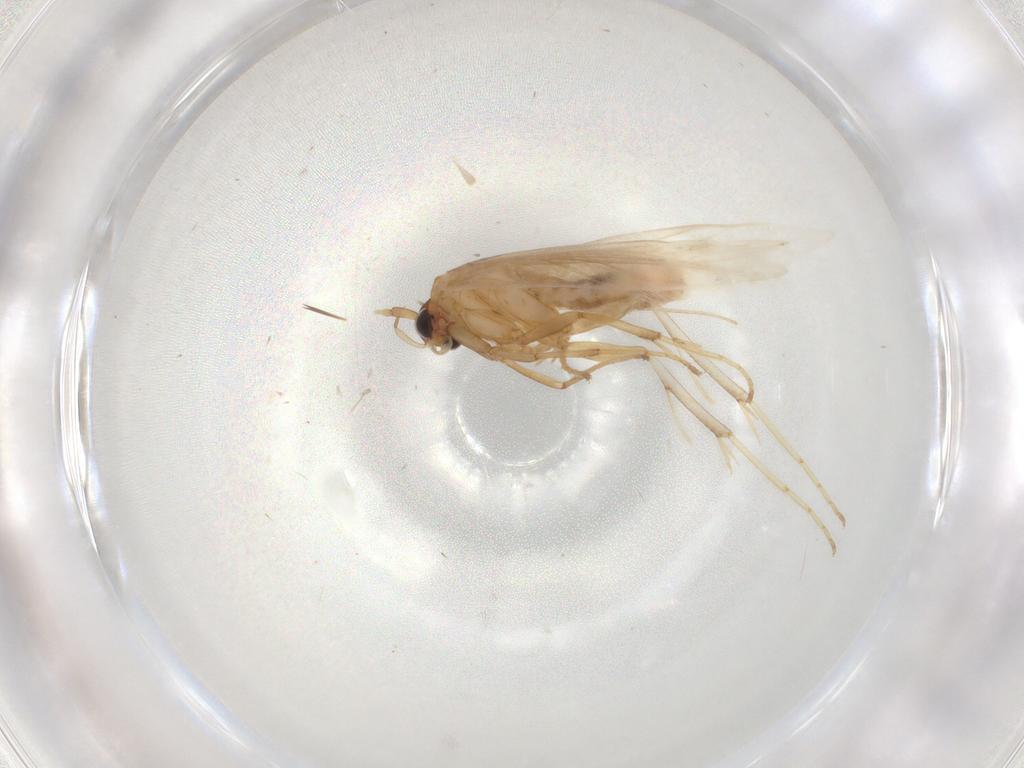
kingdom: Animalia
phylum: Arthropoda
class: Insecta
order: Lepidoptera
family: Gelechiidae
